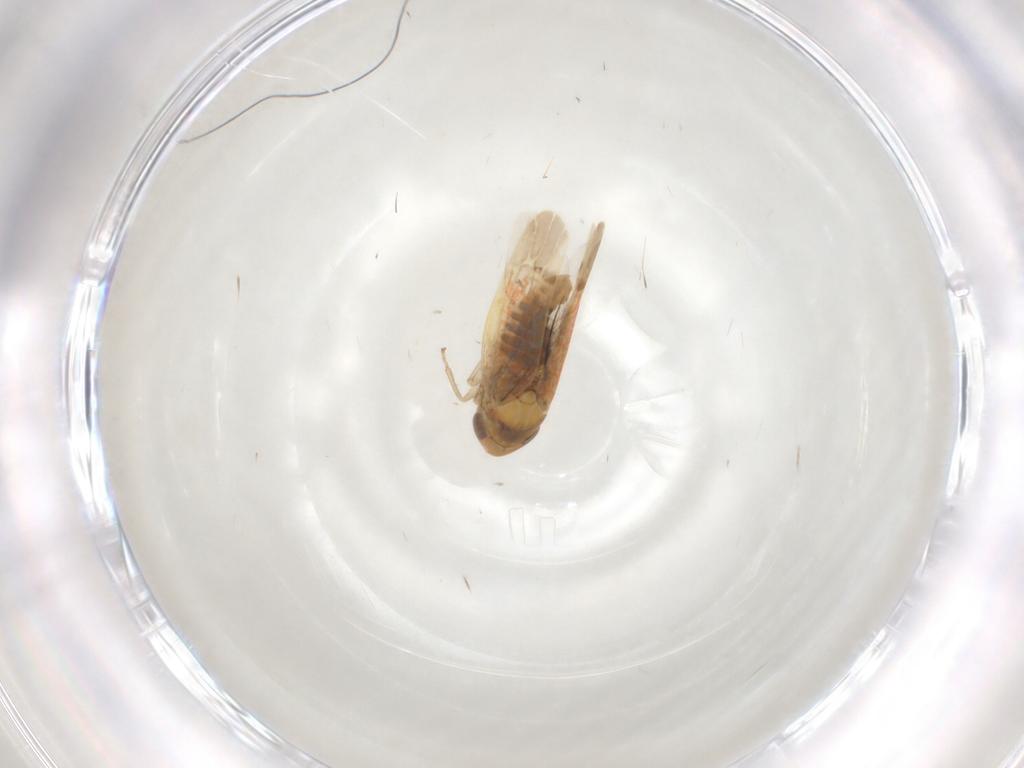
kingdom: Animalia
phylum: Arthropoda
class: Insecta
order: Hemiptera
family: Cicadellidae
